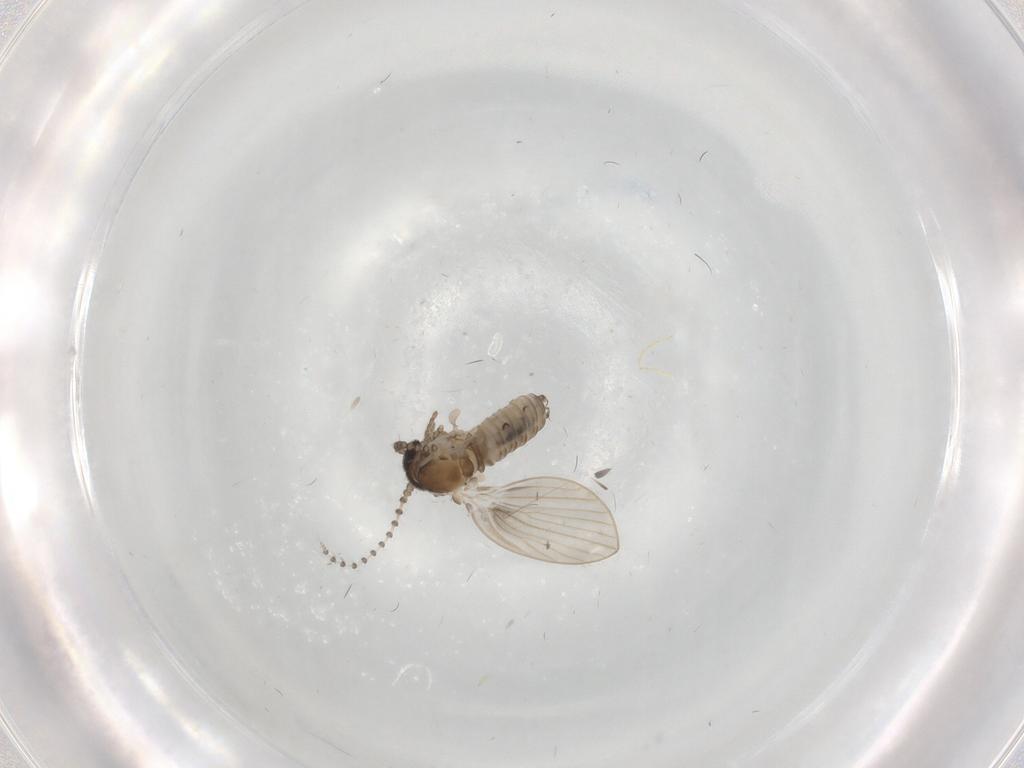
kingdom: Animalia
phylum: Arthropoda
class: Insecta
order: Diptera
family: Psychodidae
